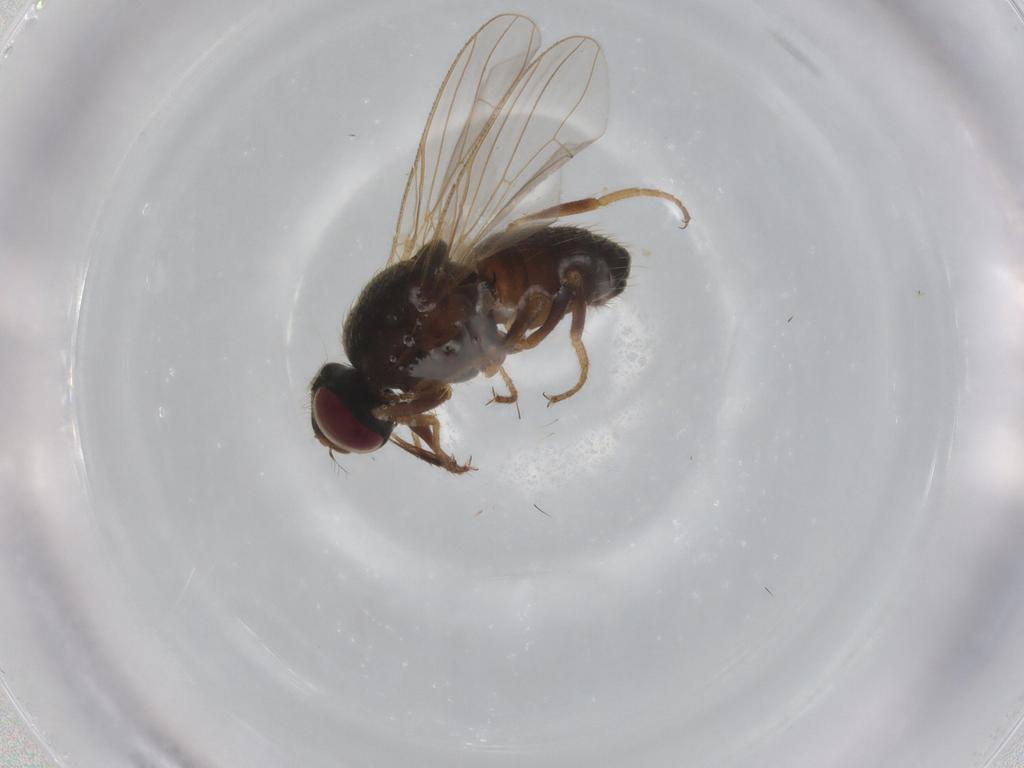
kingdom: Animalia
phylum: Arthropoda
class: Insecta
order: Diptera
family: Muscidae
